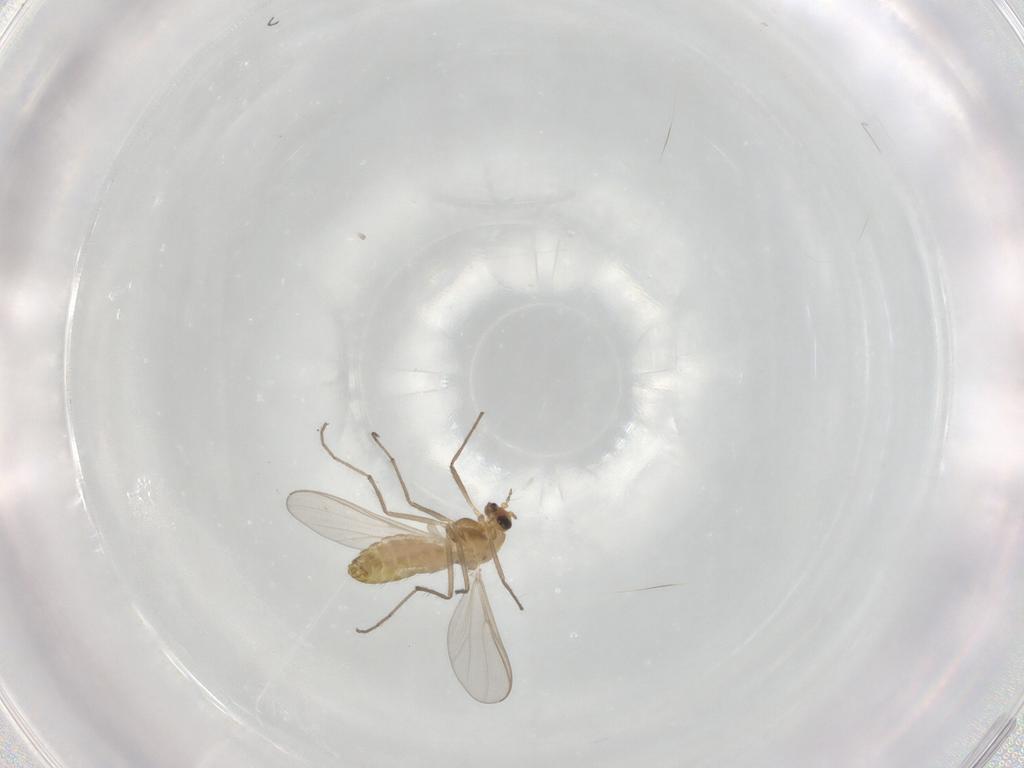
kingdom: Animalia
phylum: Arthropoda
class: Insecta
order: Diptera
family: Chironomidae
